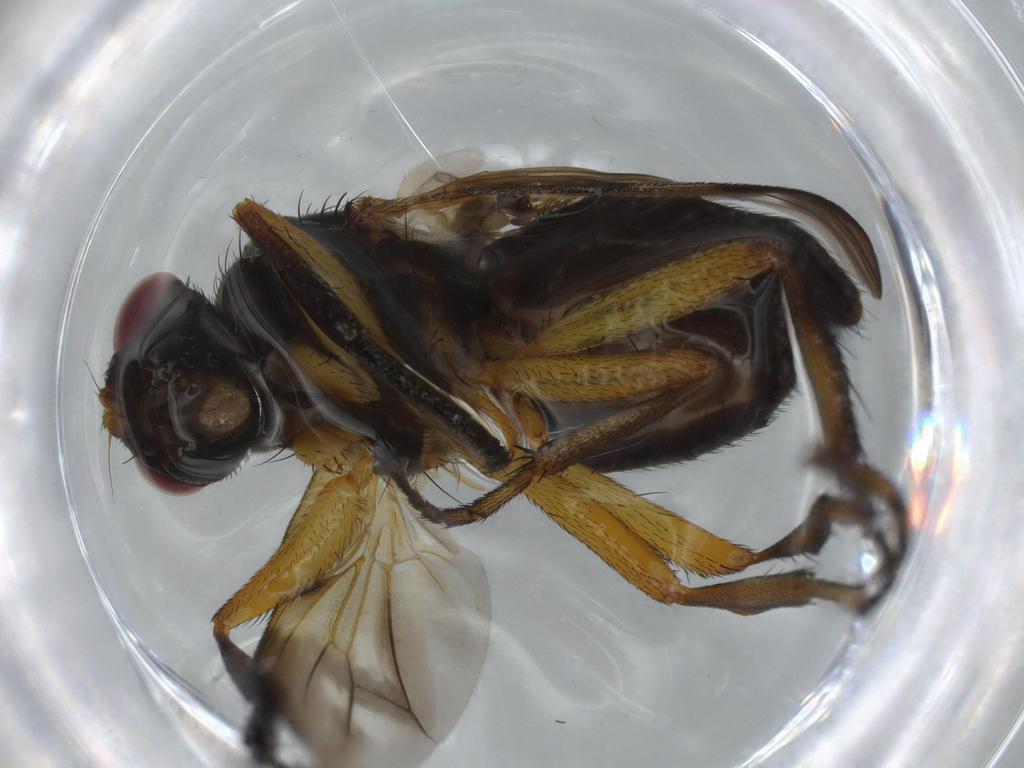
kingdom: Animalia
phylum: Arthropoda
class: Insecta
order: Diptera
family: Calliphoridae
